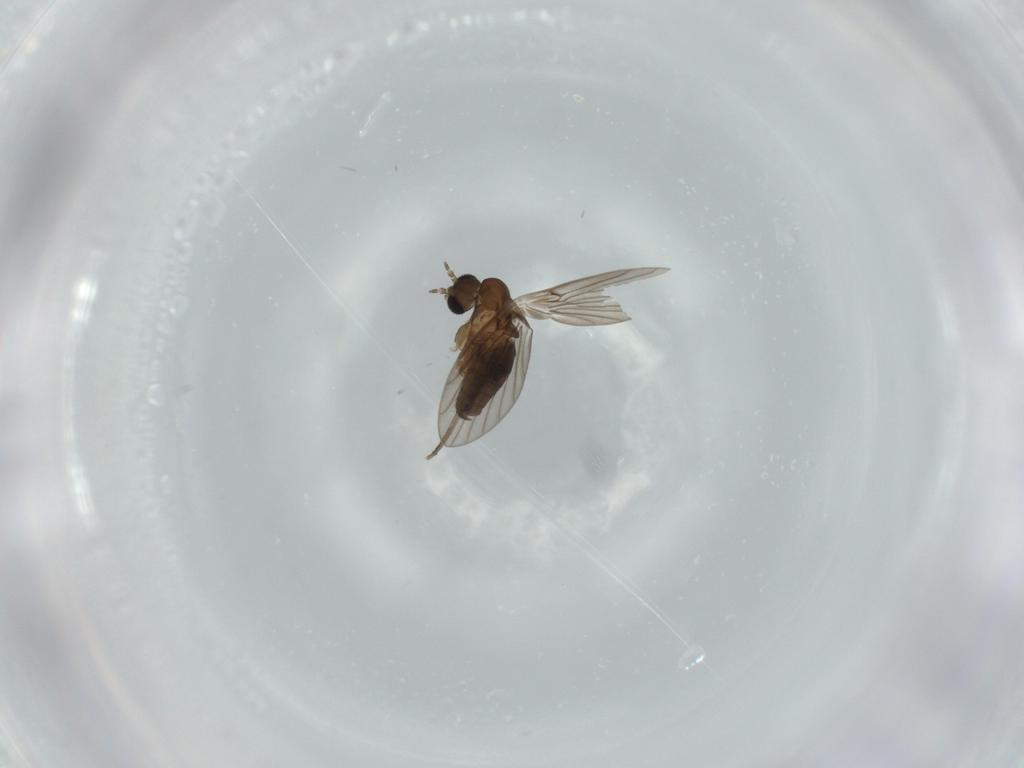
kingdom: Animalia
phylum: Arthropoda
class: Insecta
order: Diptera
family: Psychodidae
